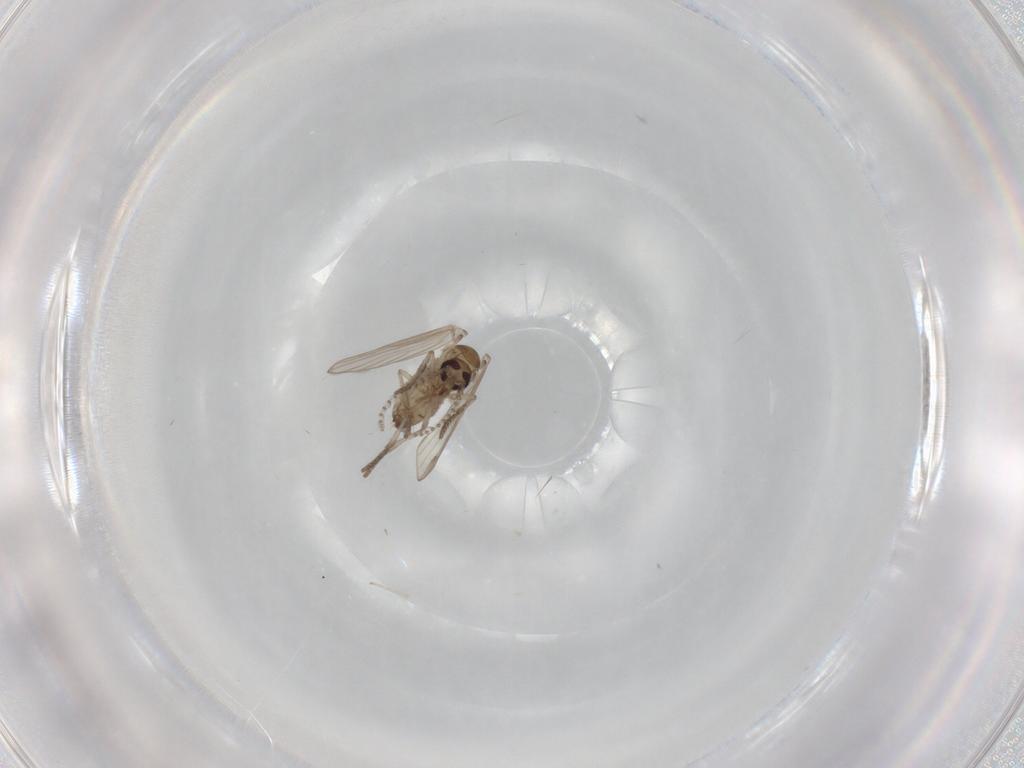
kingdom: Animalia
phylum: Arthropoda
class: Insecta
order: Diptera
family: Psychodidae
